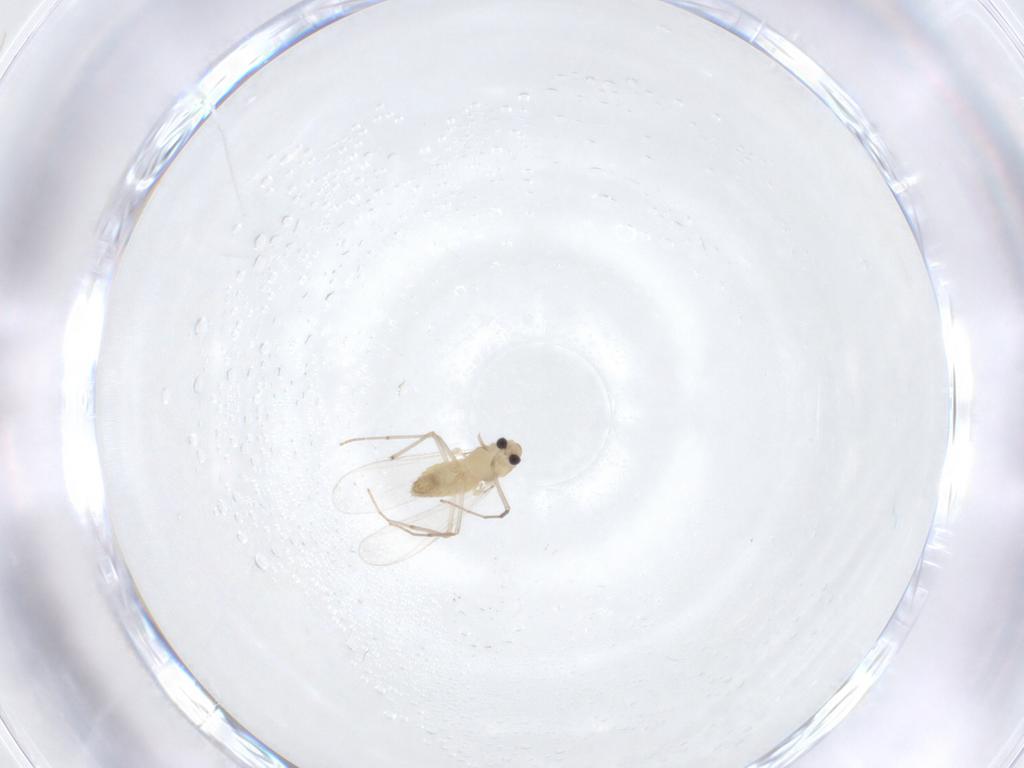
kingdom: Animalia
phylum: Arthropoda
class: Insecta
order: Diptera
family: Chironomidae
